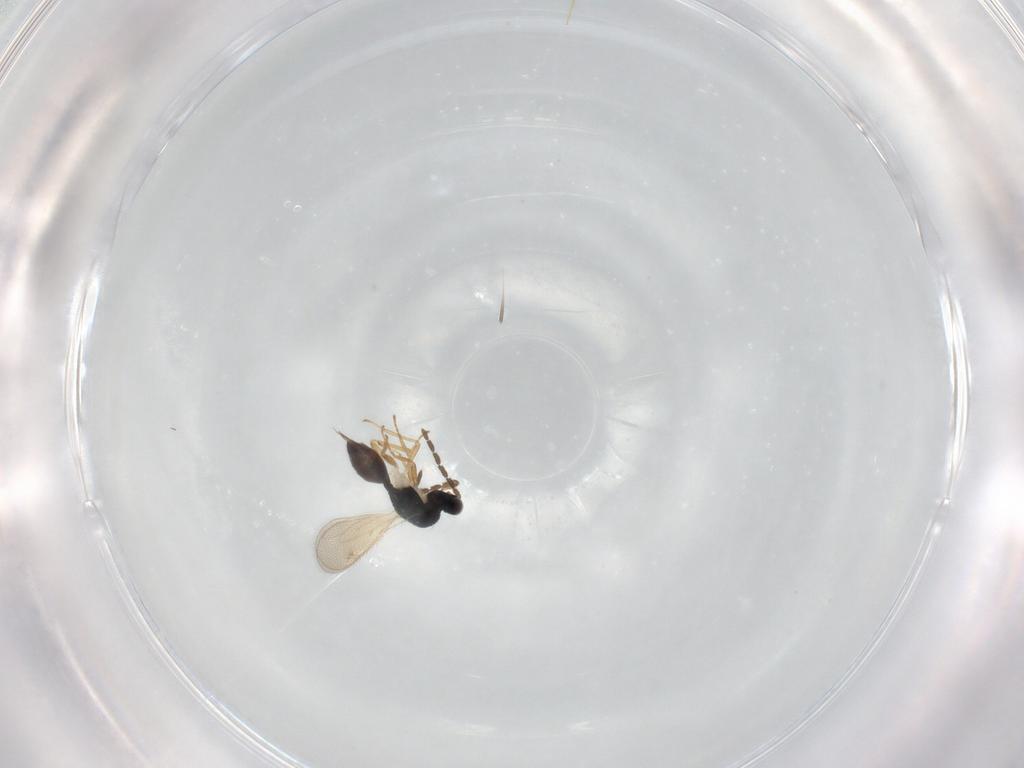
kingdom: Animalia
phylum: Arthropoda
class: Insecta
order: Hymenoptera
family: Eulophidae
